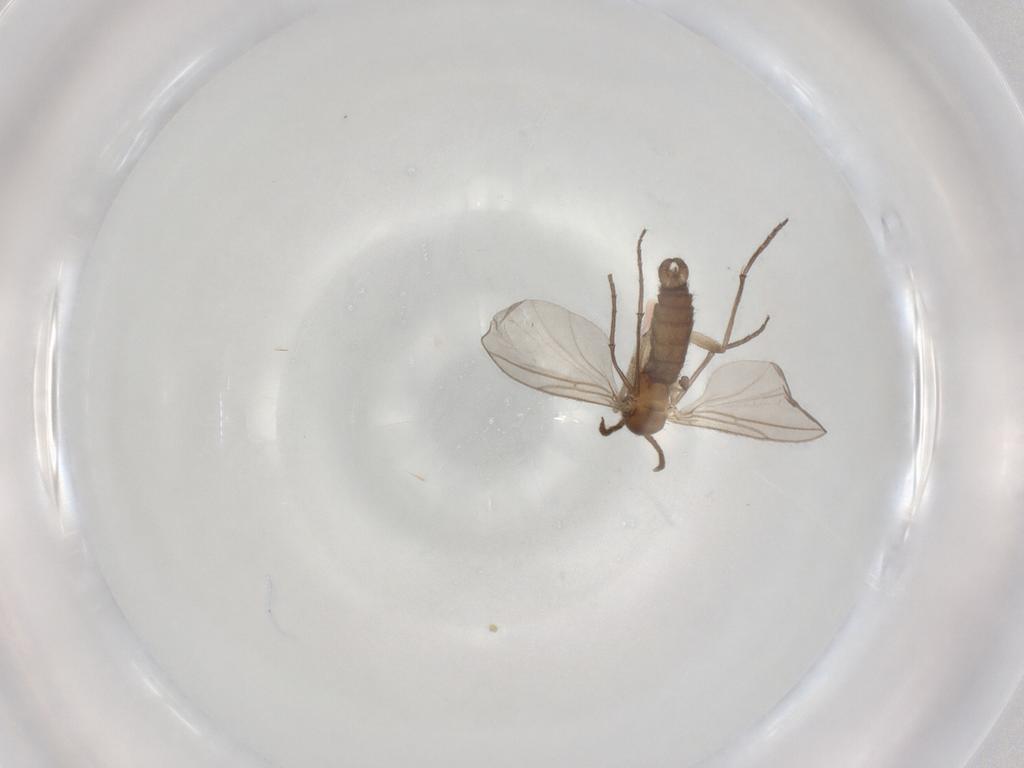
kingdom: Animalia
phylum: Arthropoda
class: Insecta
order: Diptera
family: Sciaridae
